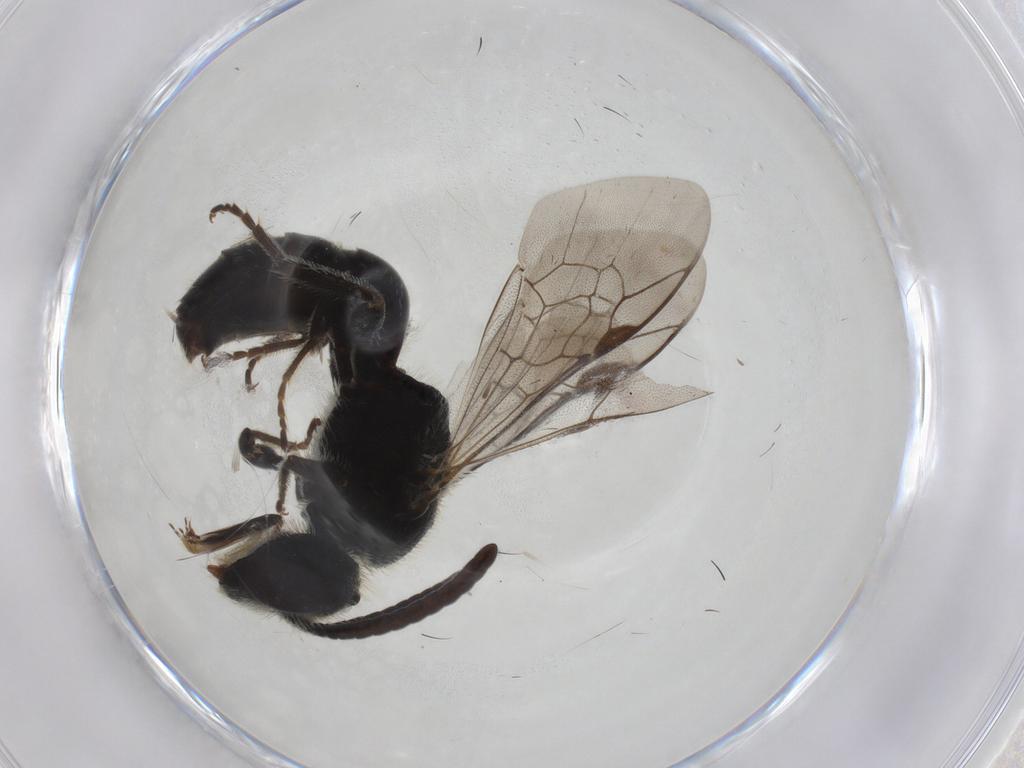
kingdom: Animalia
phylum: Arthropoda
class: Insecta
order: Hymenoptera
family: Halictidae
